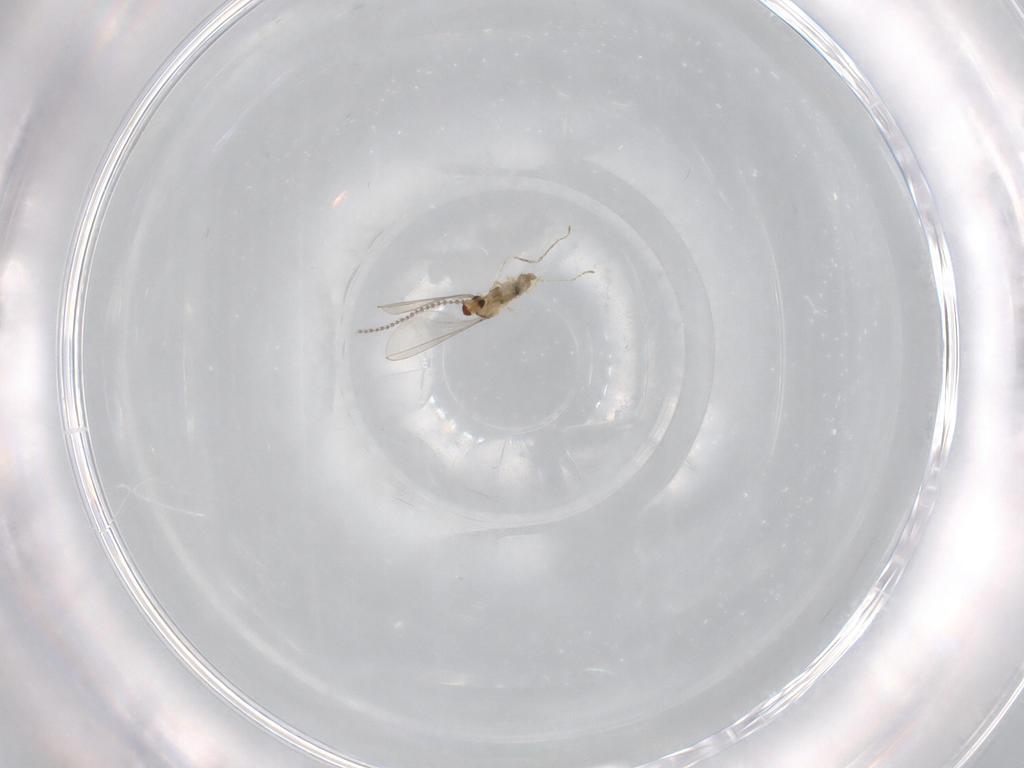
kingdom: Animalia
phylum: Arthropoda
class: Insecta
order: Diptera
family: Cecidomyiidae
